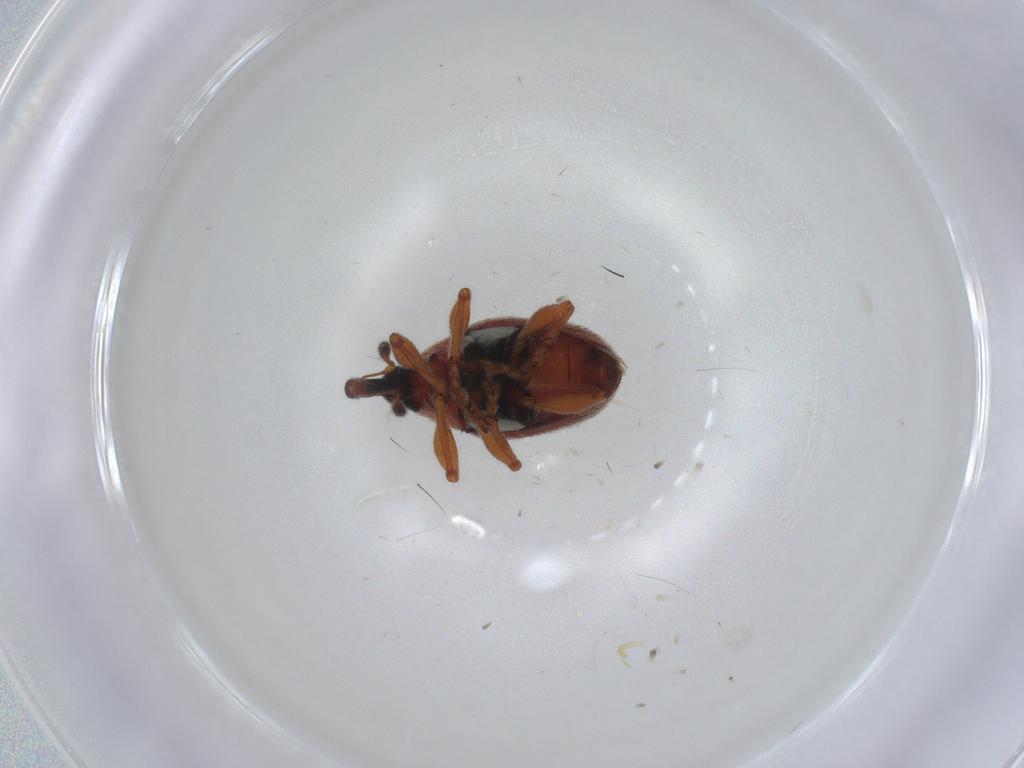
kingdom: Animalia
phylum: Arthropoda
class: Insecta
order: Coleoptera
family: Brentidae
